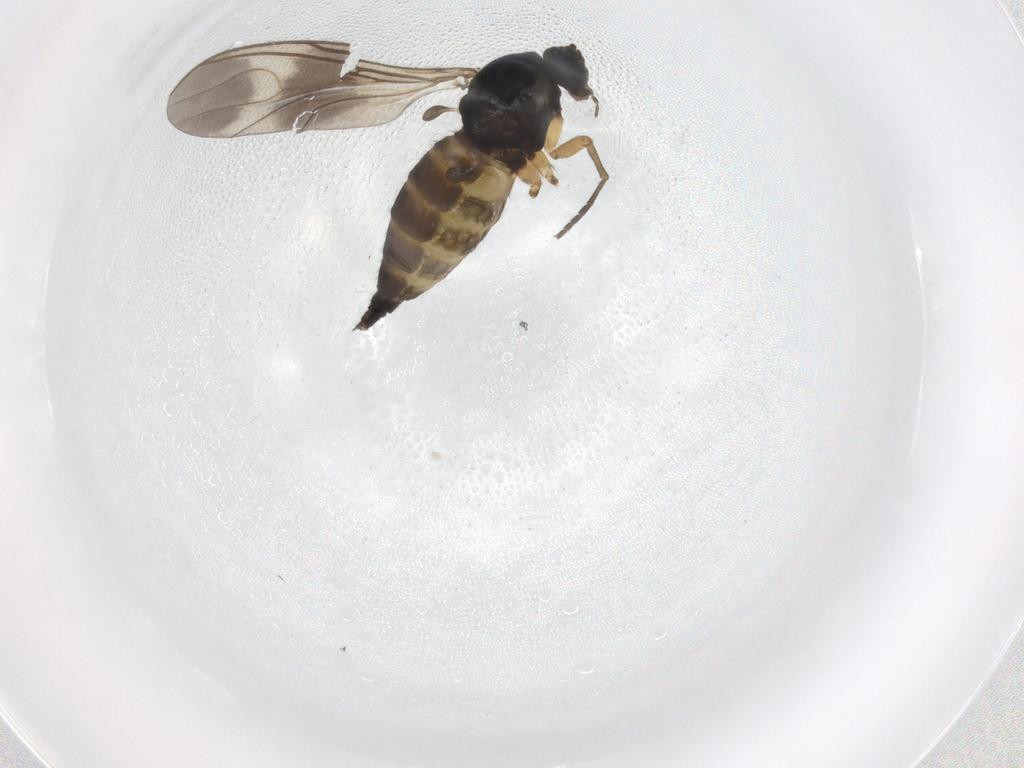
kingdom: Animalia
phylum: Arthropoda
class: Insecta
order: Diptera
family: Sciaridae
